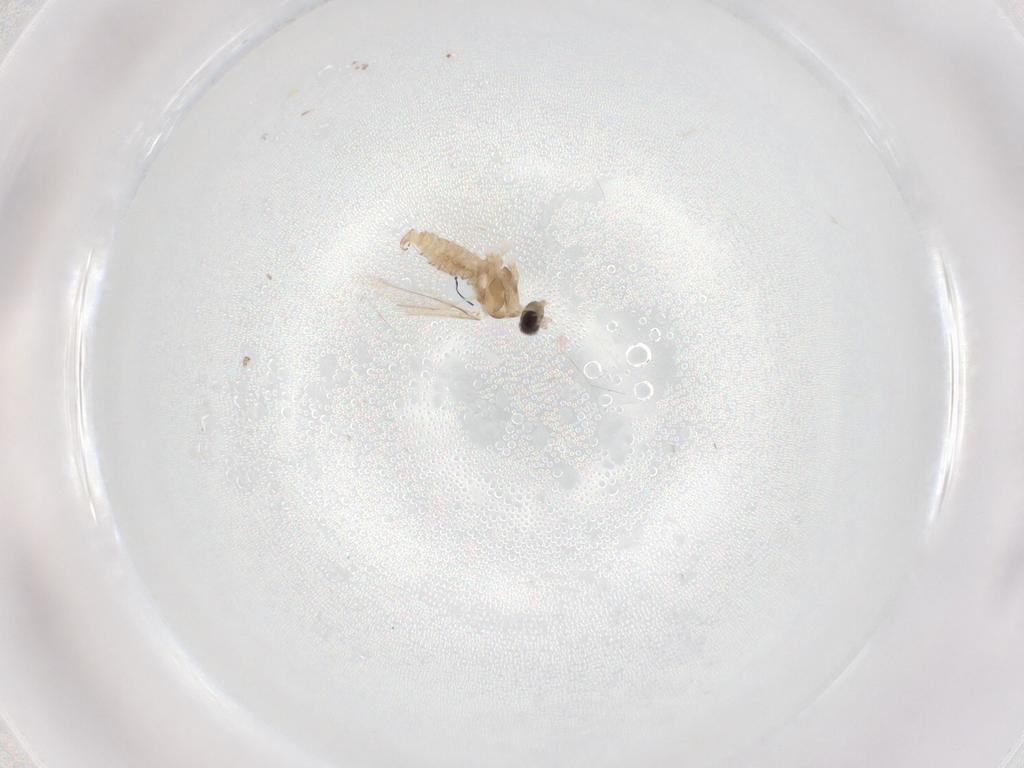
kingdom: Animalia
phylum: Arthropoda
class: Insecta
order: Diptera
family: Cecidomyiidae
